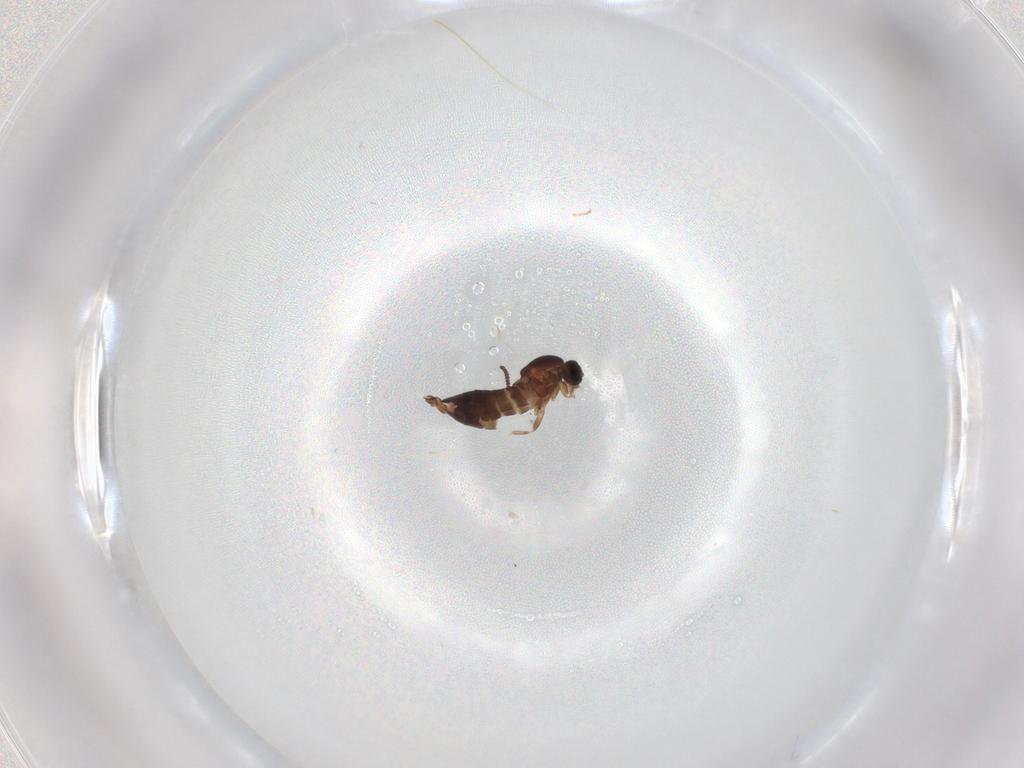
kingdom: Animalia
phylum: Arthropoda
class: Insecta
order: Diptera
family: Scatopsidae
